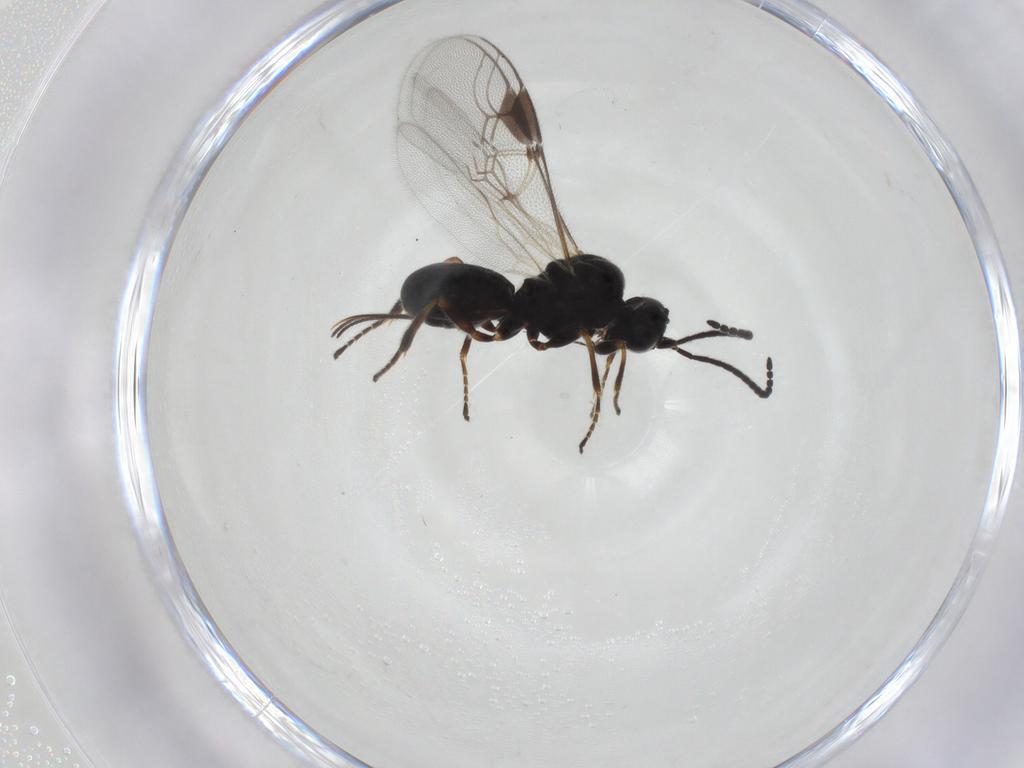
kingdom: Animalia
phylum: Arthropoda
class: Insecta
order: Hymenoptera
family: Braconidae
